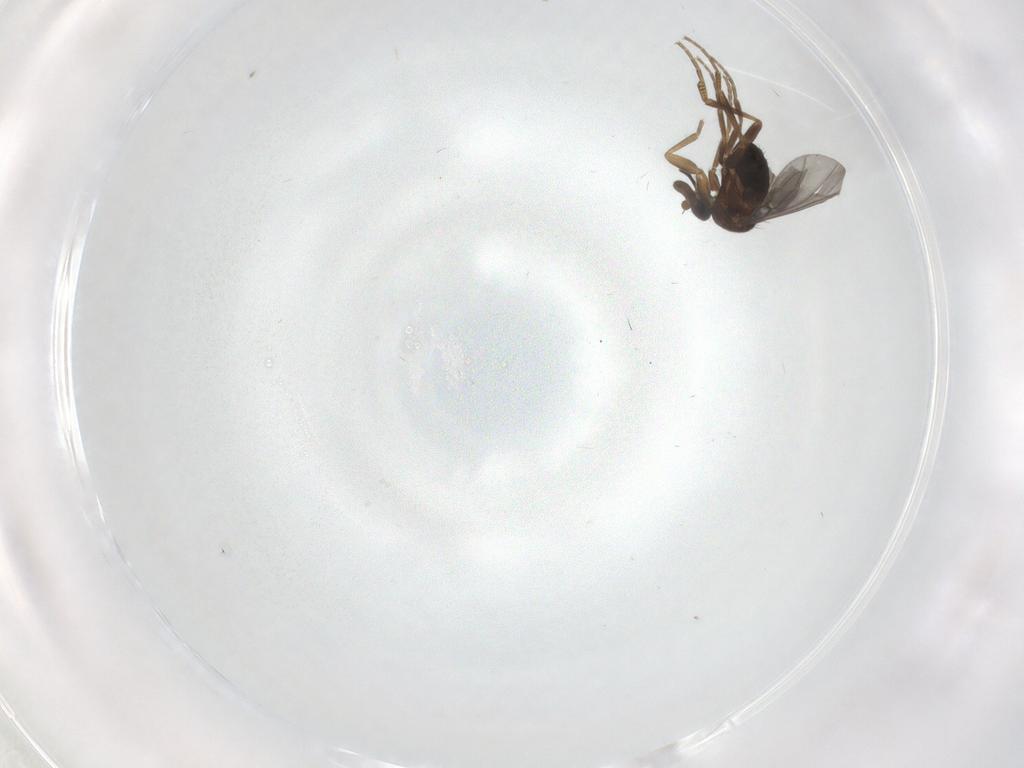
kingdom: Animalia
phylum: Arthropoda
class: Insecta
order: Diptera
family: Phoridae
